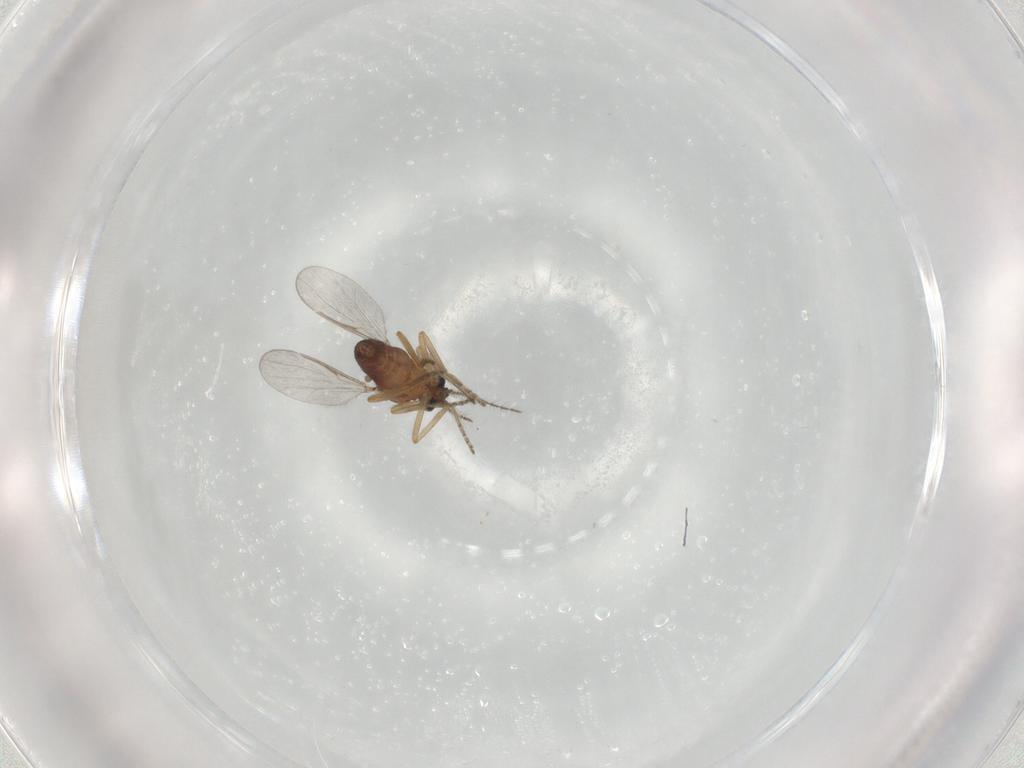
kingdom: Animalia
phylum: Arthropoda
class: Insecta
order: Diptera
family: Ceratopogonidae
